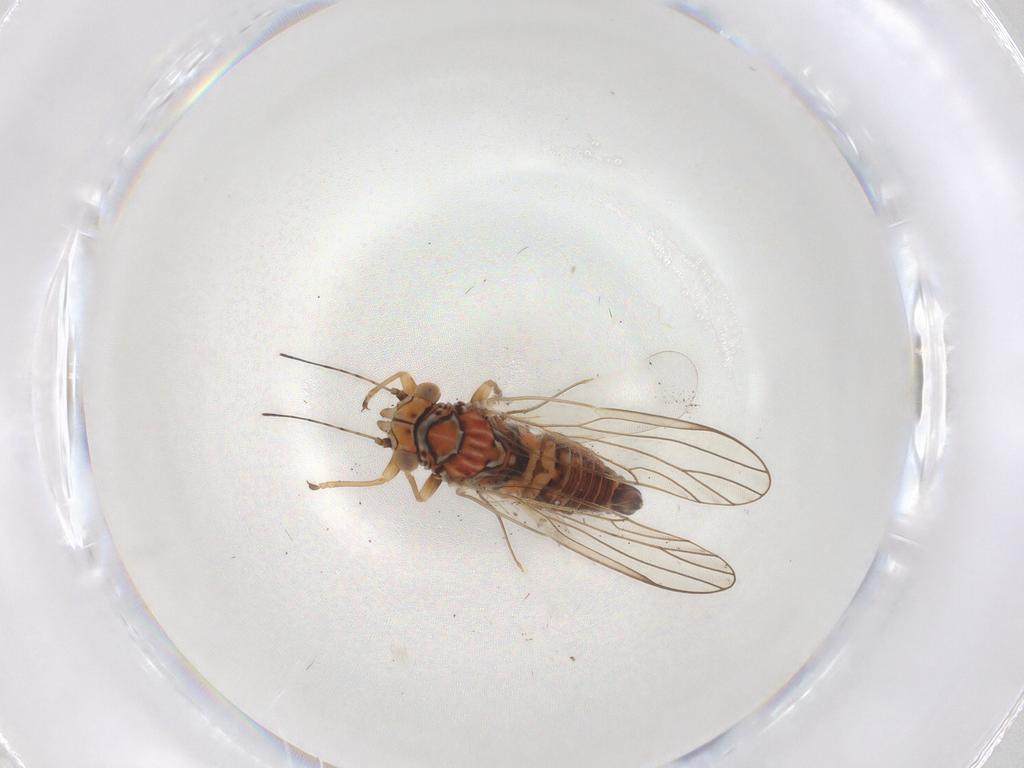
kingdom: Animalia
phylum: Arthropoda
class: Insecta
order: Hemiptera
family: Psyllidae
